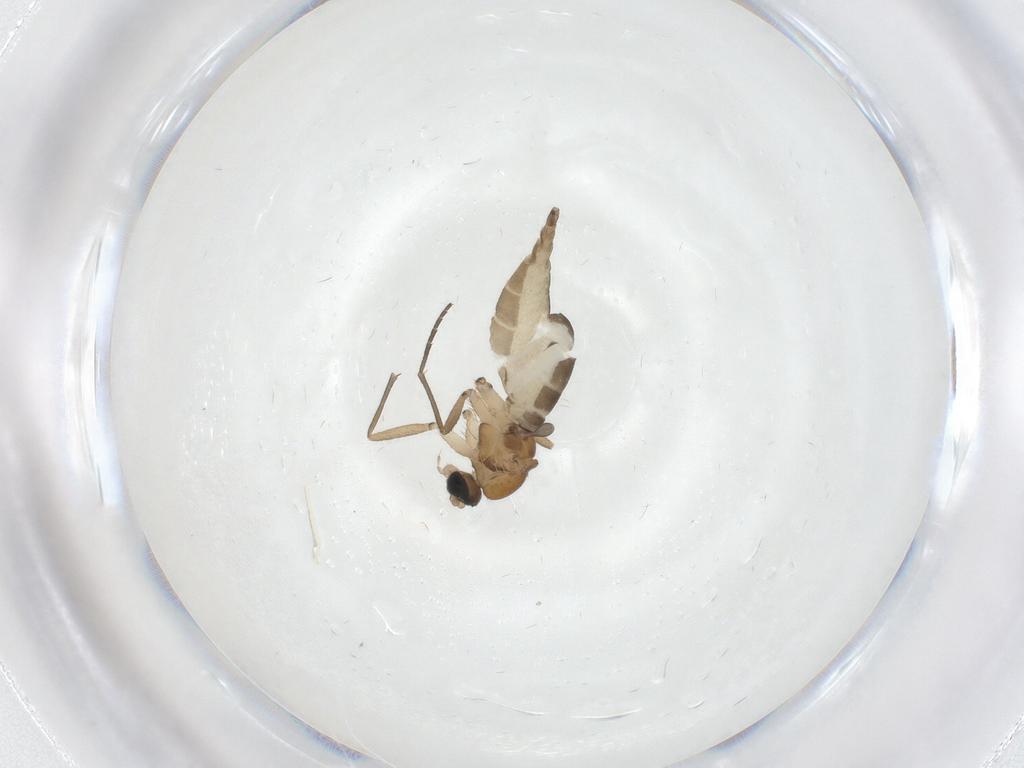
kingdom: Animalia
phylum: Arthropoda
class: Insecta
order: Diptera
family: Sciaridae
